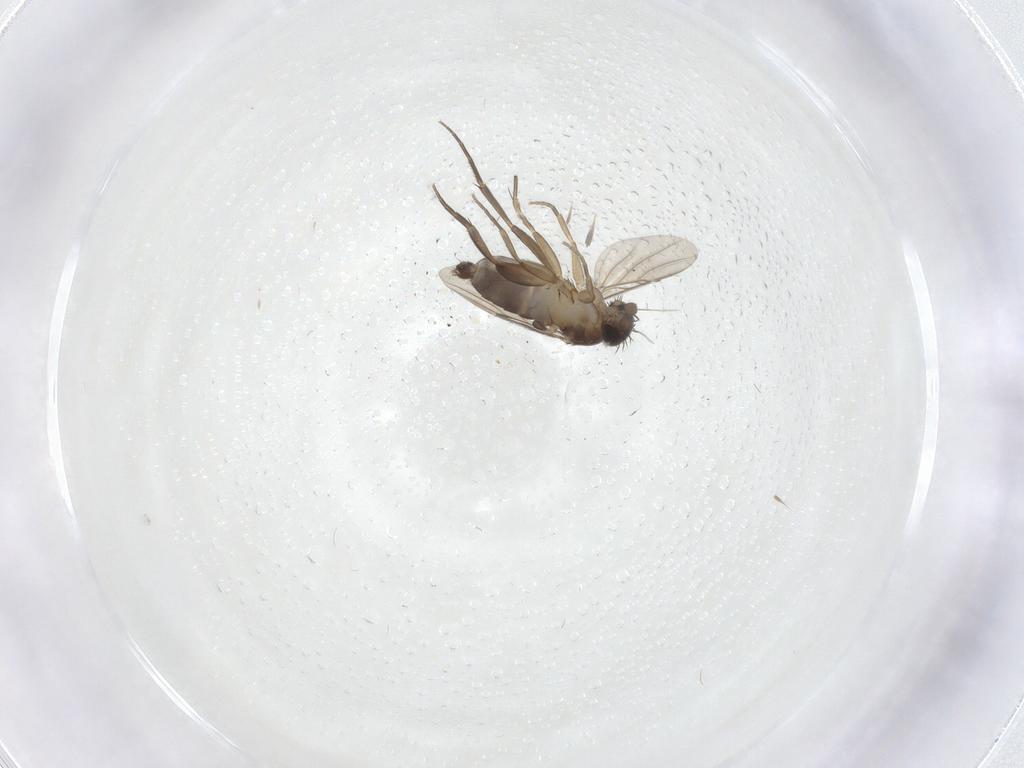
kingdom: Animalia
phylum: Arthropoda
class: Insecta
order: Diptera
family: Phoridae
